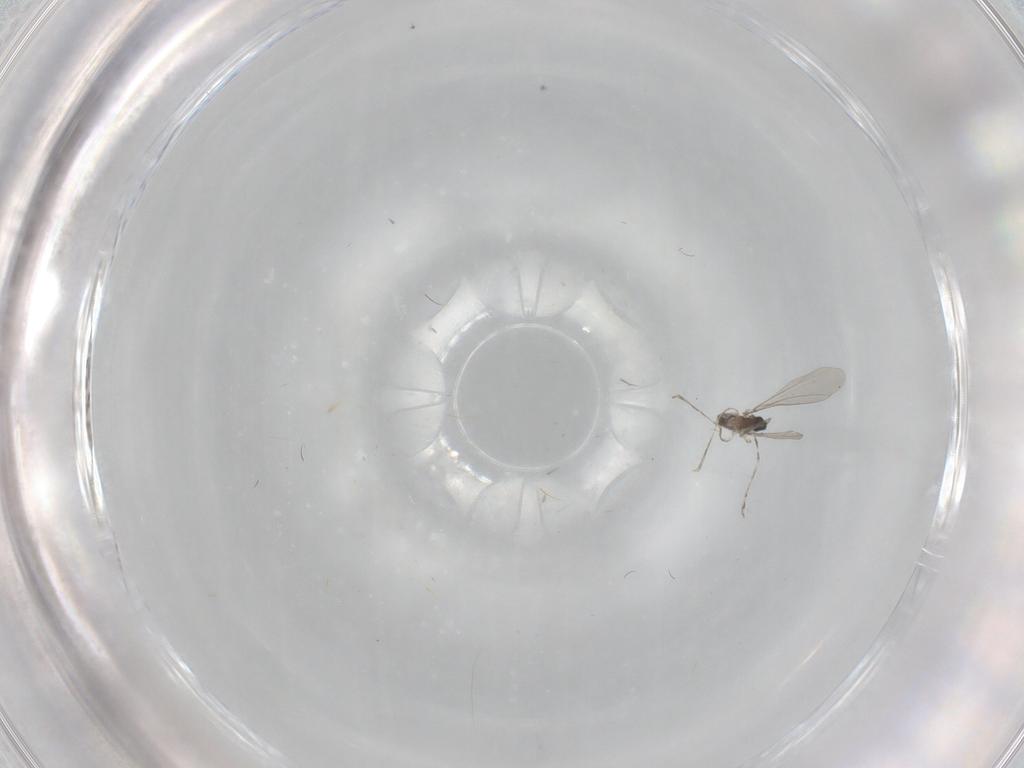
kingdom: Animalia
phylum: Arthropoda
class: Insecta
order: Diptera
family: Cecidomyiidae
